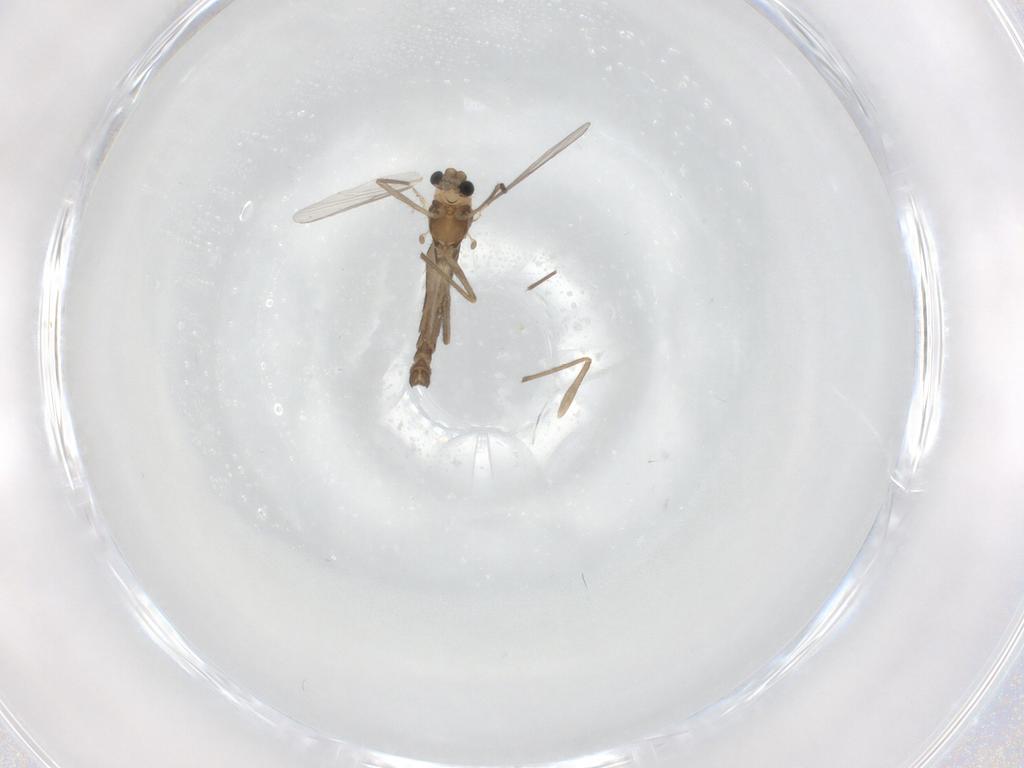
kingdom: Animalia
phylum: Arthropoda
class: Insecta
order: Diptera
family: Chironomidae
